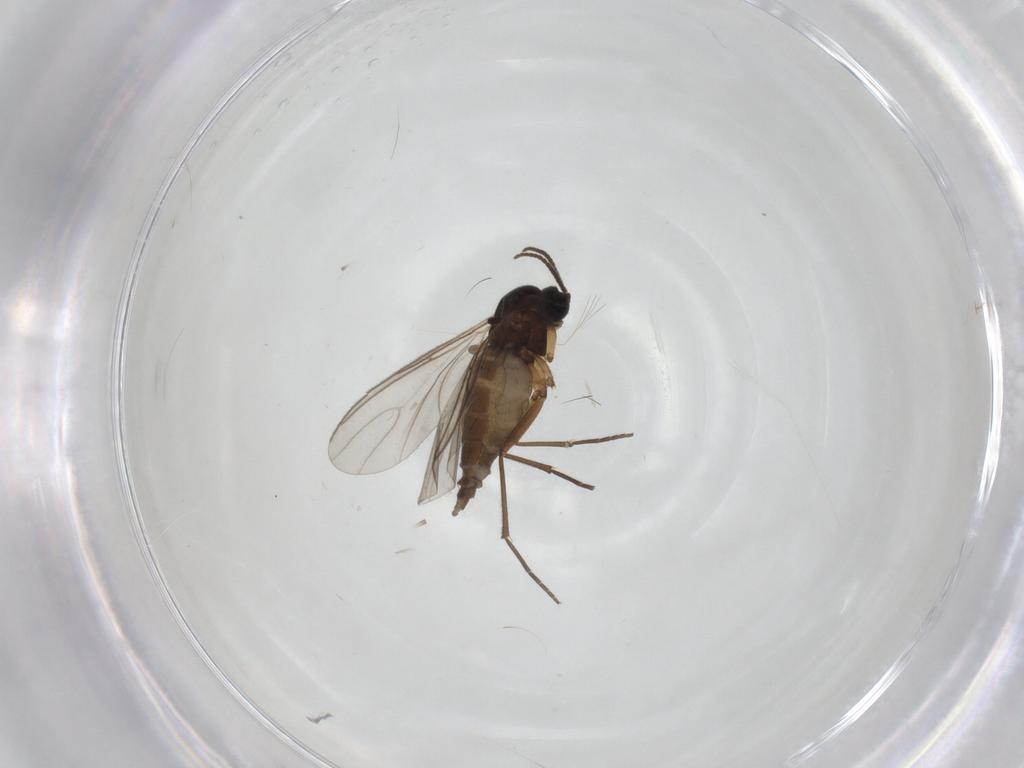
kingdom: Animalia
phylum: Arthropoda
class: Insecta
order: Diptera
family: Sciaridae
